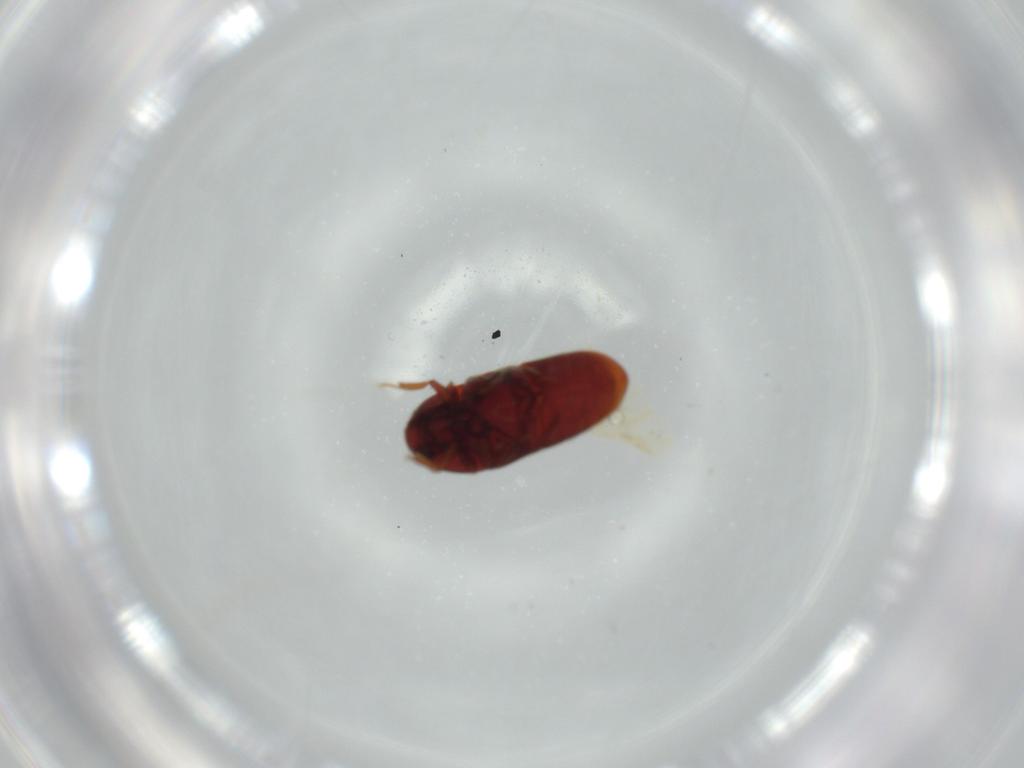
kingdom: Animalia
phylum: Arthropoda
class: Insecta
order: Coleoptera
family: Throscidae
